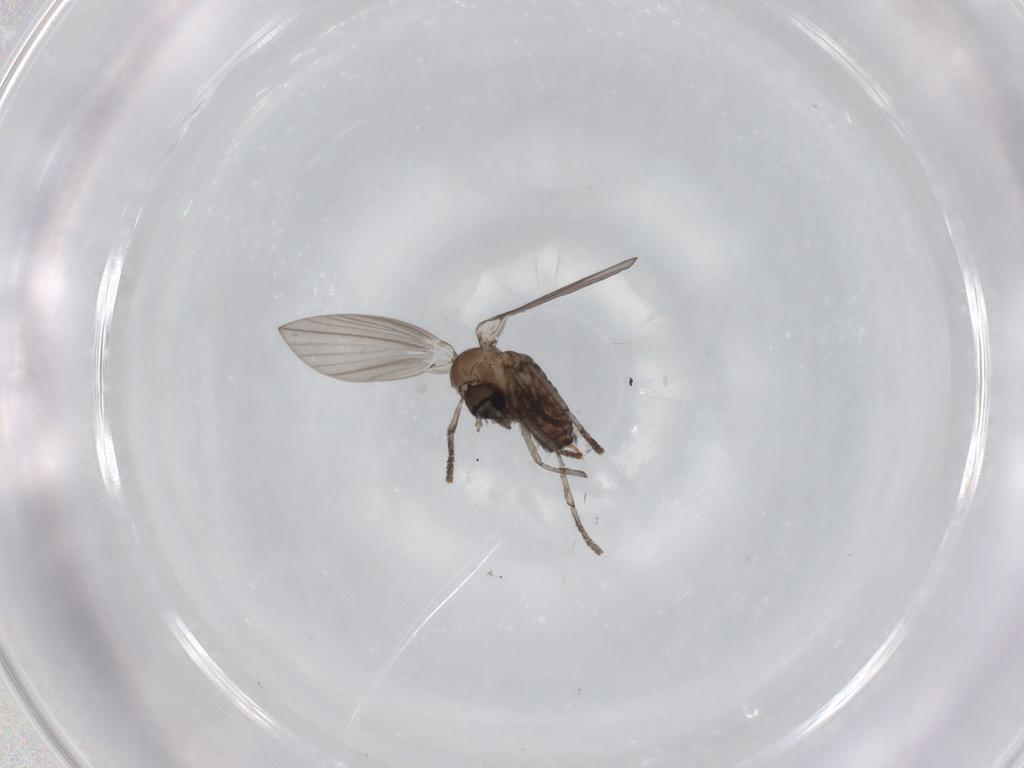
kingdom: Animalia
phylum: Arthropoda
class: Insecta
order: Diptera
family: Psychodidae
